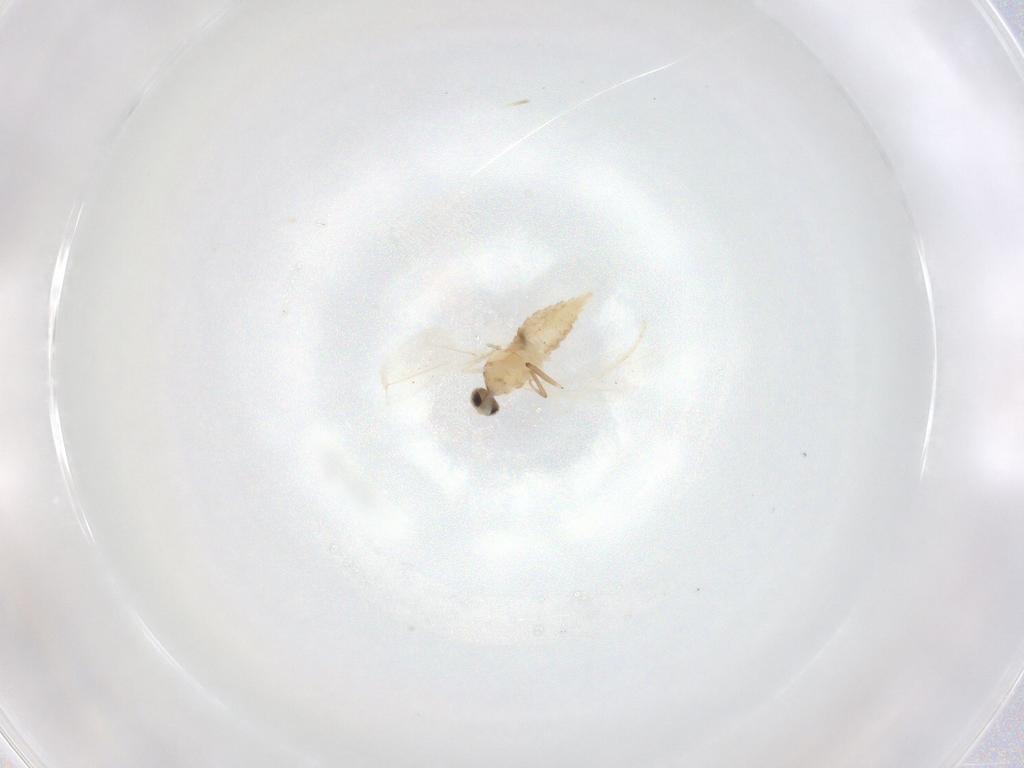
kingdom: Animalia
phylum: Arthropoda
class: Insecta
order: Diptera
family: Cecidomyiidae
